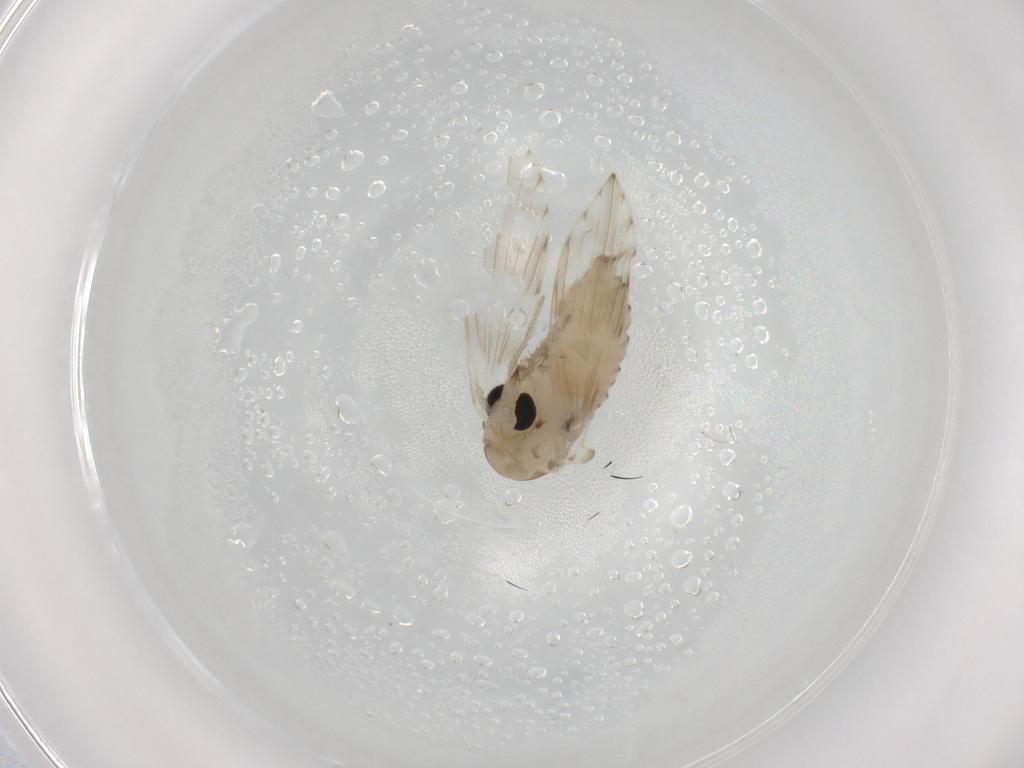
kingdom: Animalia
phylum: Arthropoda
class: Insecta
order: Diptera
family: Psychodidae
